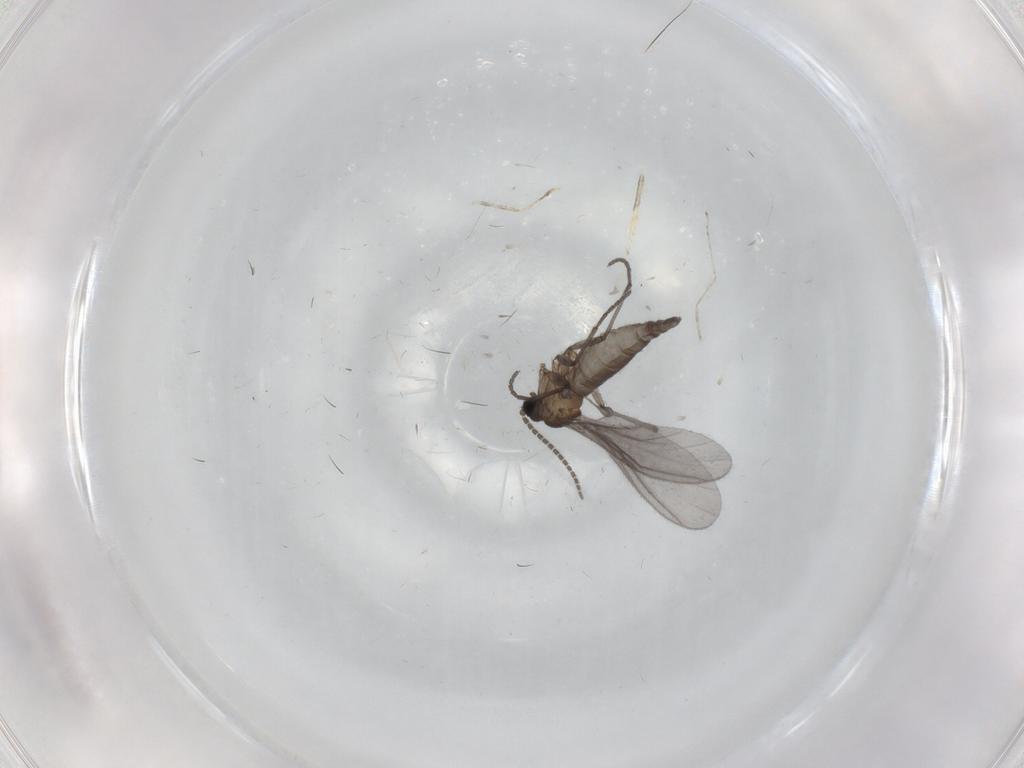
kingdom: Animalia
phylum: Arthropoda
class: Insecta
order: Diptera
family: Sciaridae
